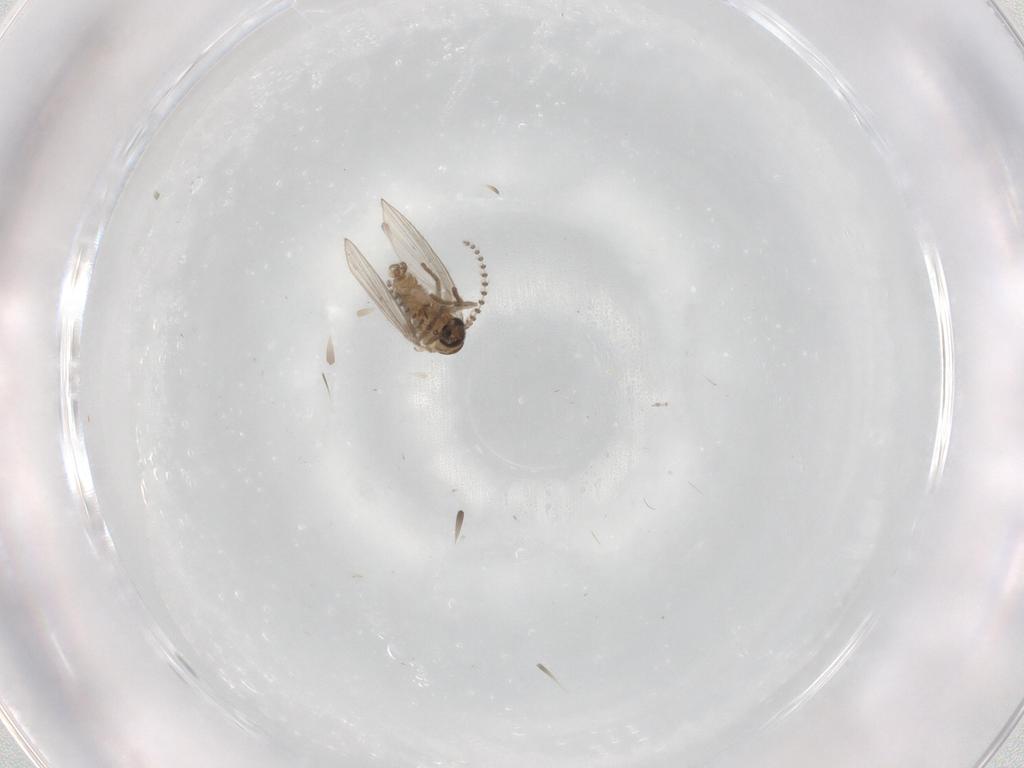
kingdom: Animalia
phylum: Arthropoda
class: Insecta
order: Diptera
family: Psychodidae
